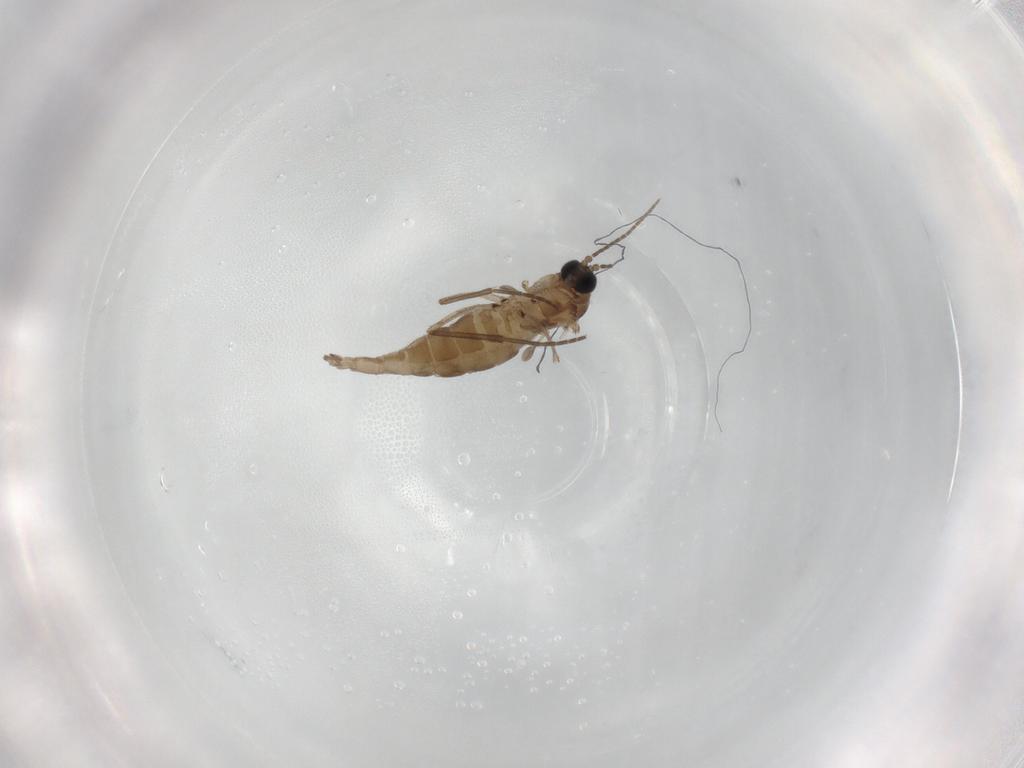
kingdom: Animalia
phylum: Arthropoda
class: Insecta
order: Diptera
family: Sciaridae
